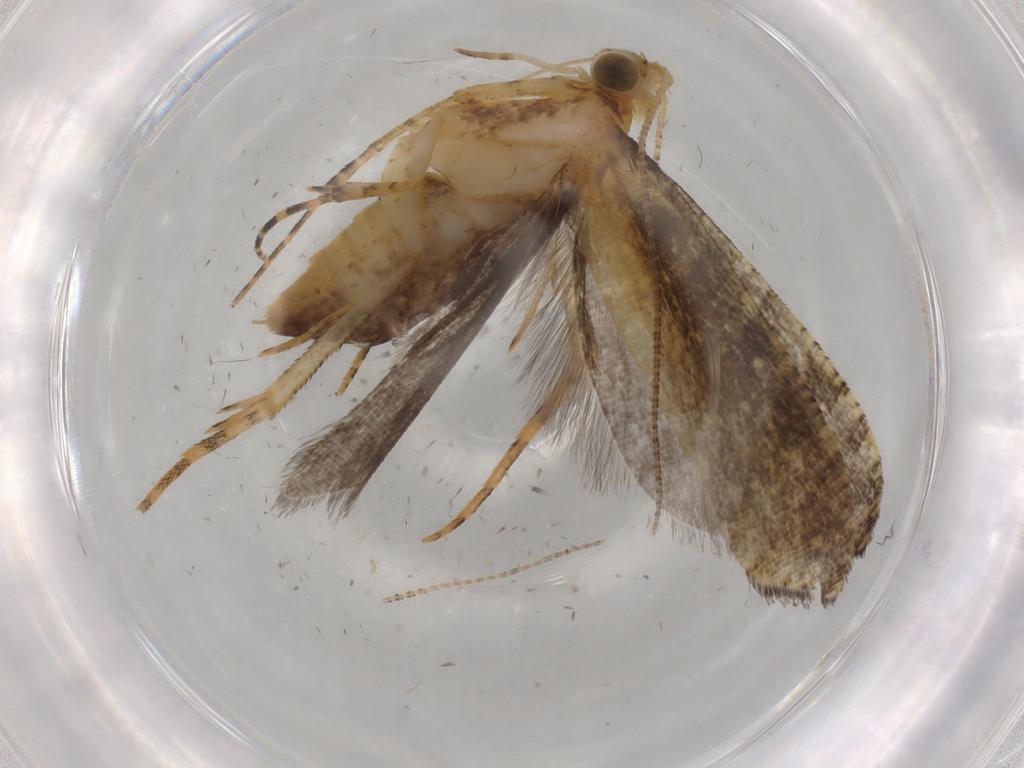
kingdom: Animalia
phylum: Arthropoda
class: Insecta
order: Lepidoptera
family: Argyresthiidae
